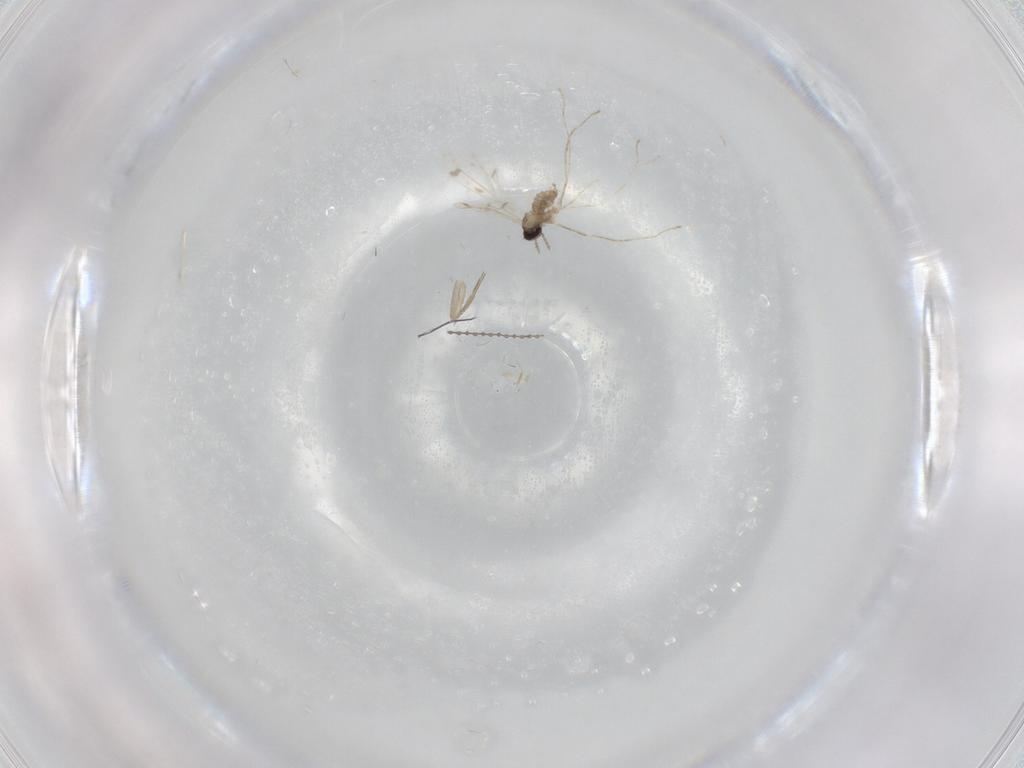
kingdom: Animalia
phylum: Arthropoda
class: Insecta
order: Diptera
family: Cecidomyiidae
